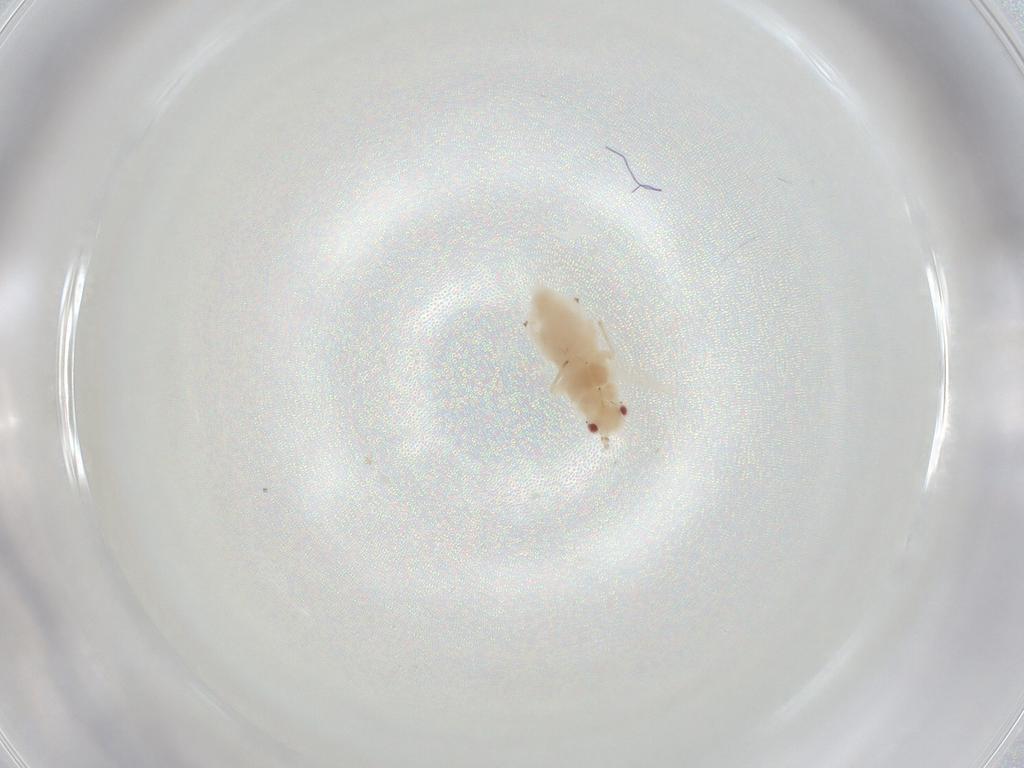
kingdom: Animalia
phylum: Arthropoda
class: Insecta
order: Hemiptera
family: Aphididae
